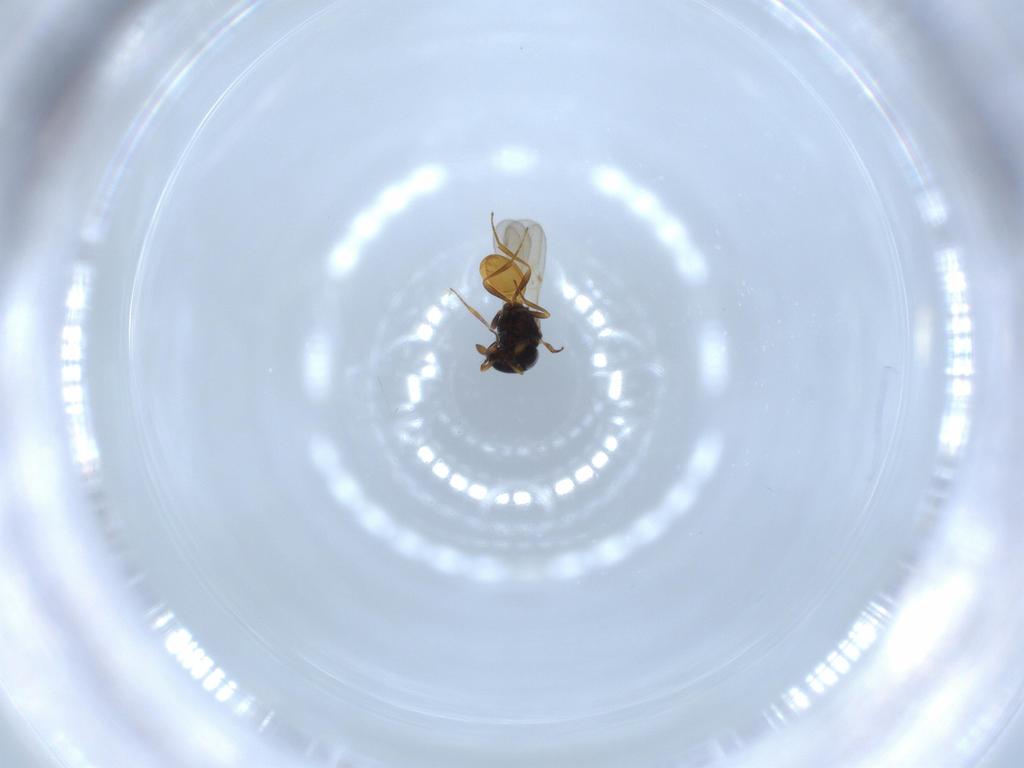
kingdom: Animalia
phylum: Arthropoda
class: Insecta
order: Hymenoptera
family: Scelionidae
